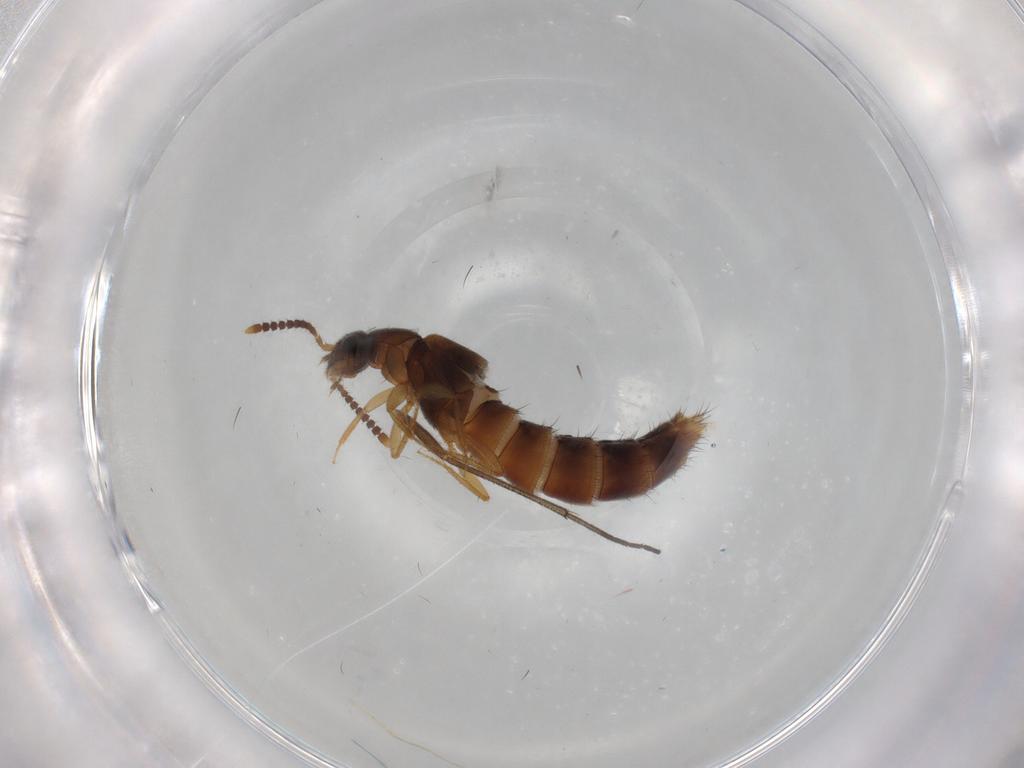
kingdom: Animalia
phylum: Arthropoda
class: Insecta
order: Coleoptera
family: Staphylinidae
